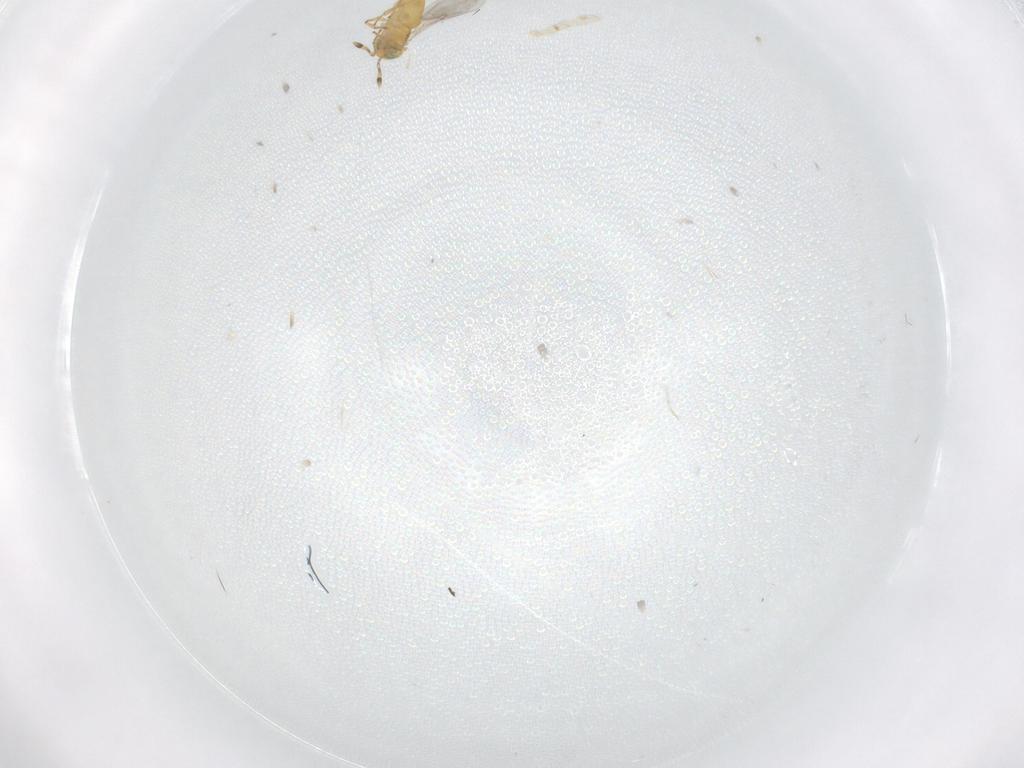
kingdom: Animalia
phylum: Arthropoda
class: Insecta
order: Hymenoptera
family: Encyrtidae
